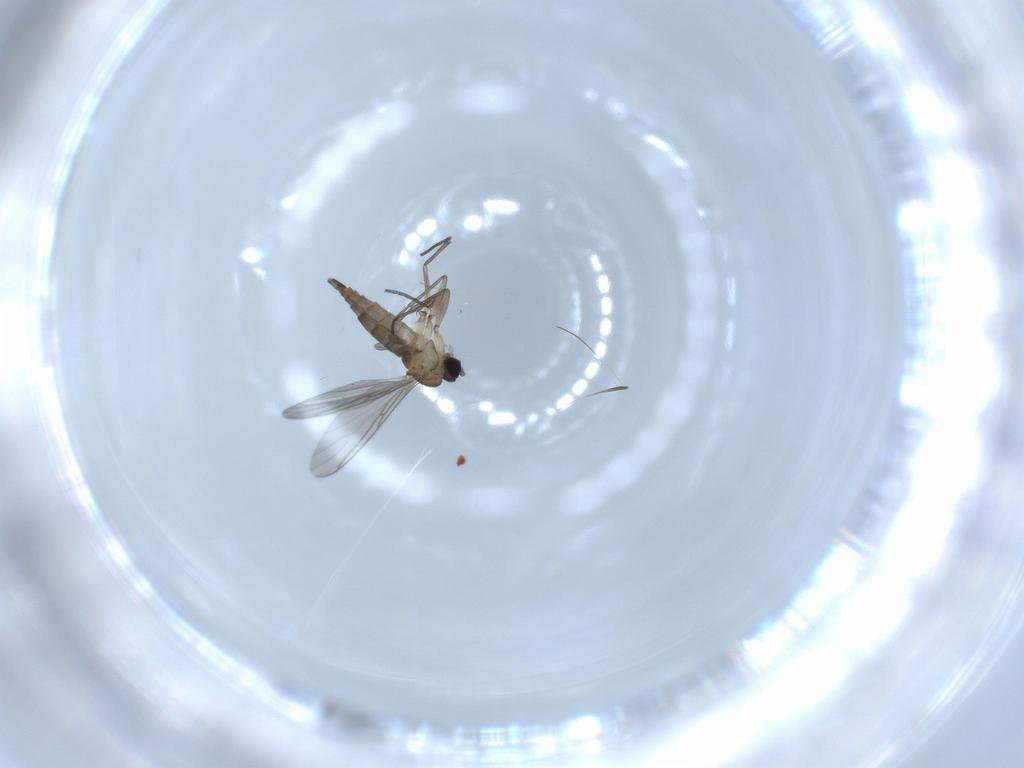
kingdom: Animalia
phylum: Arthropoda
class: Insecta
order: Diptera
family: Sciaridae
